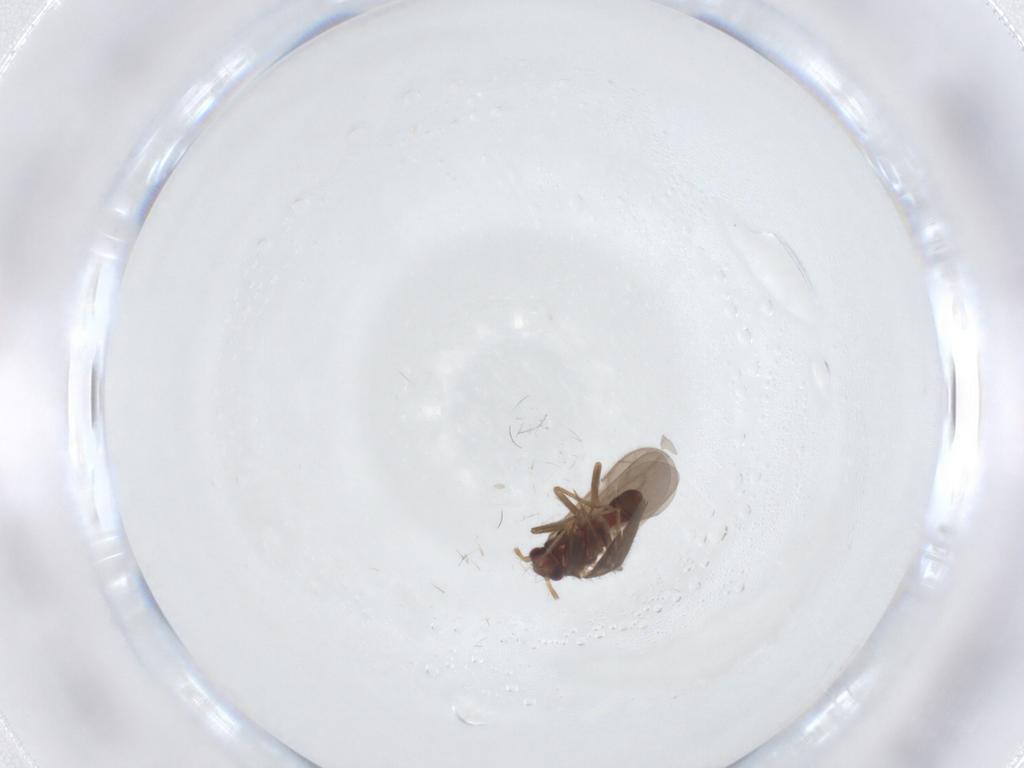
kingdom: Animalia
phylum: Arthropoda
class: Insecta
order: Hemiptera
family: Ceratocombidae
